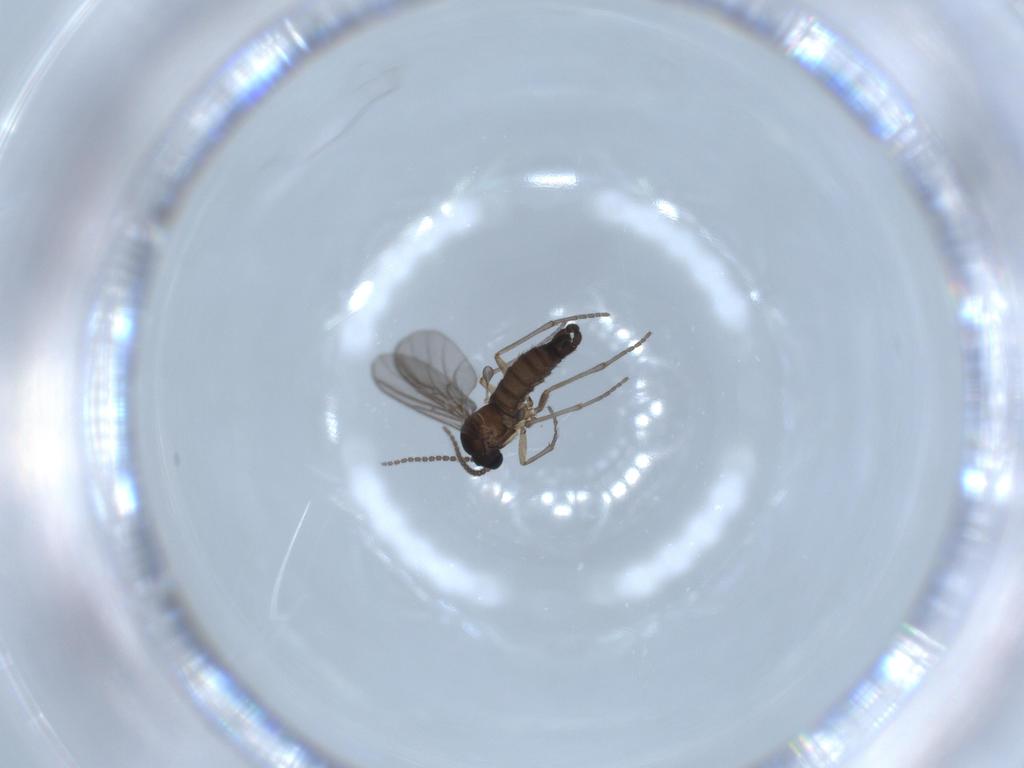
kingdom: Animalia
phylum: Arthropoda
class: Insecta
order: Diptera
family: Sciaridae
